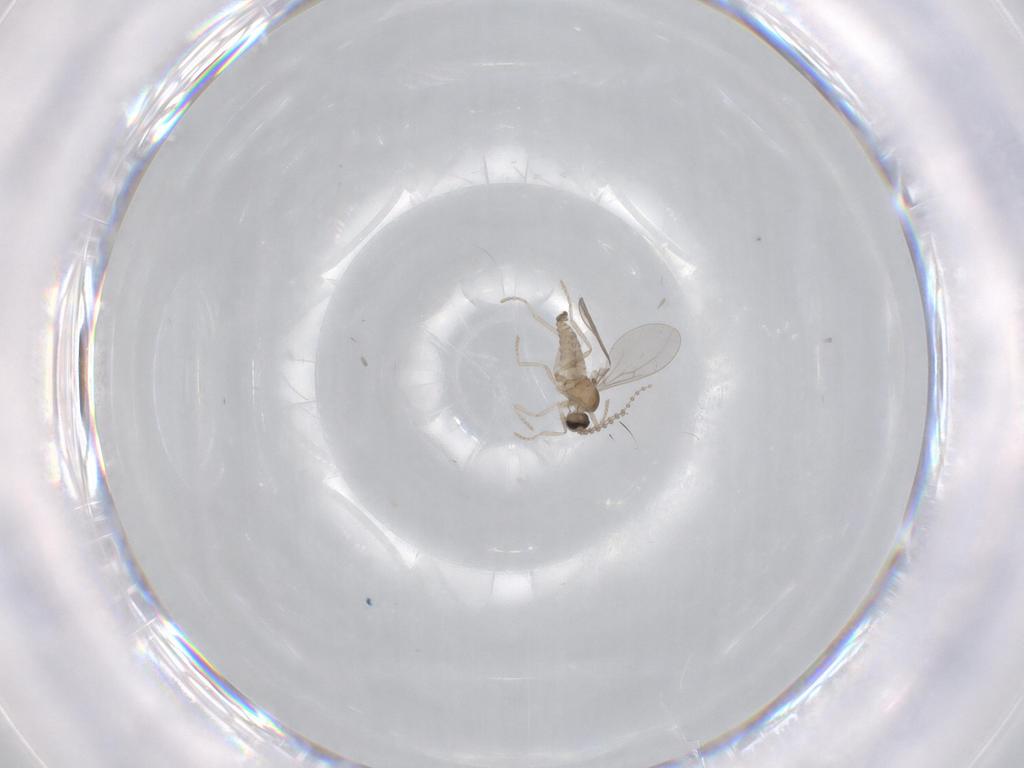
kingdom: Animalia
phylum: Arthropoda
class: Insecta
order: Diptera
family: Cecidomyiidae
